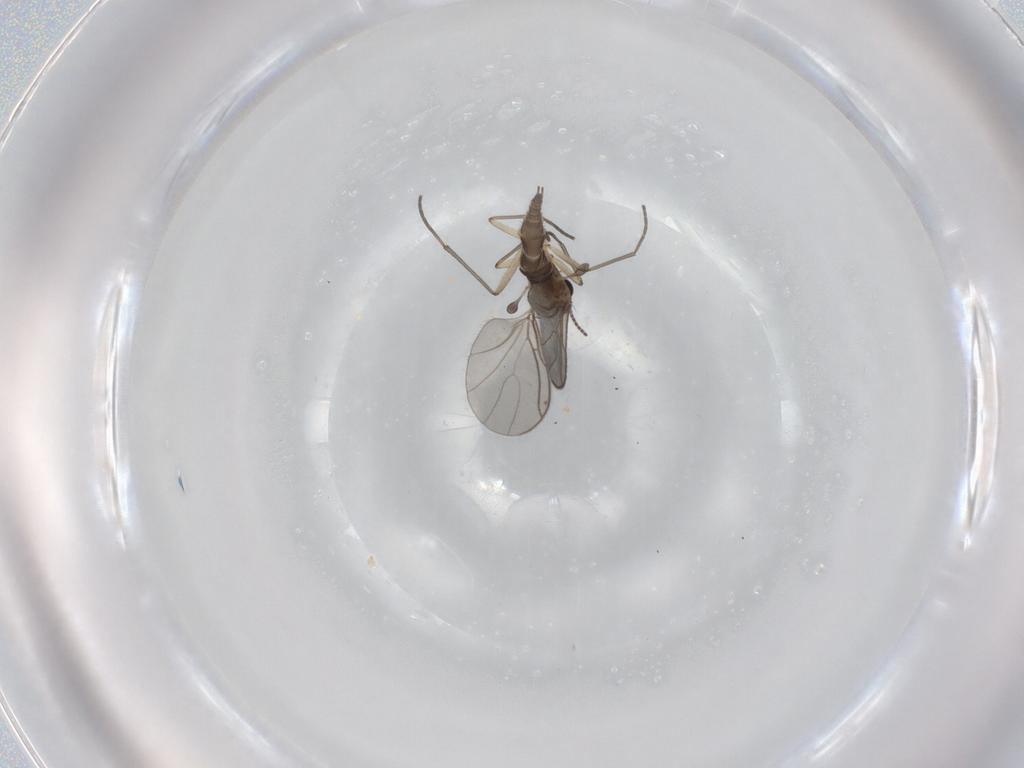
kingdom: Animalia
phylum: Arthropoda
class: Insecta
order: Diptera
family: Sciaridae
